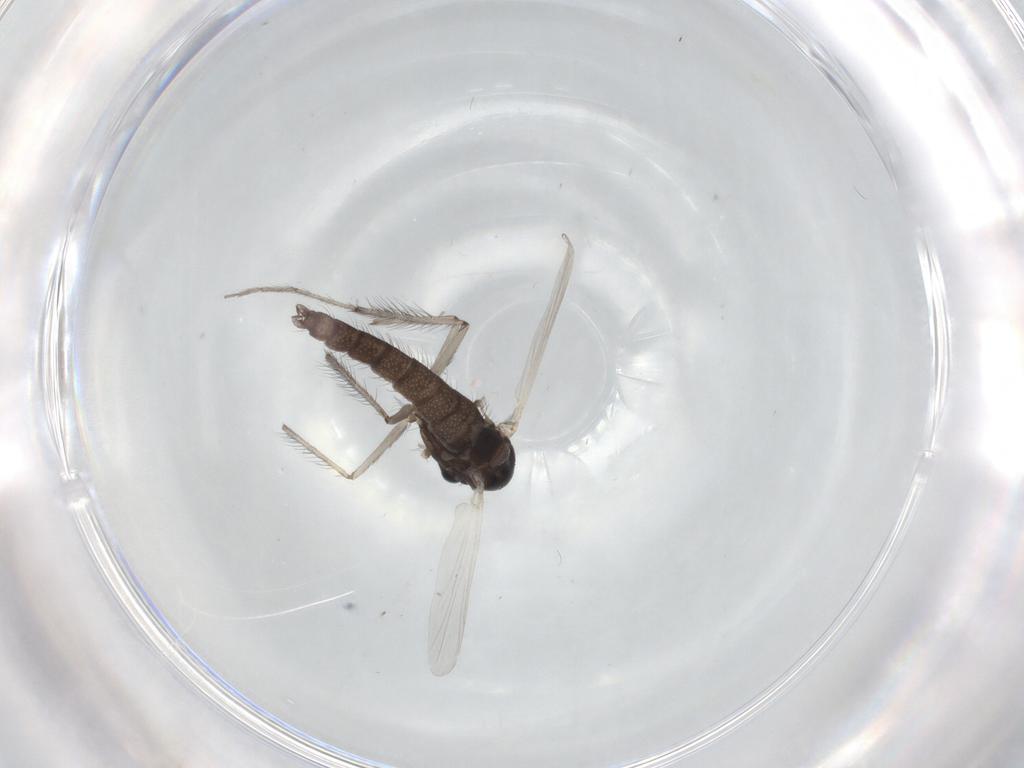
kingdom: Animalia
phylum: Arthropoda
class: Insecta
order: Diptera
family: Chironomidae
